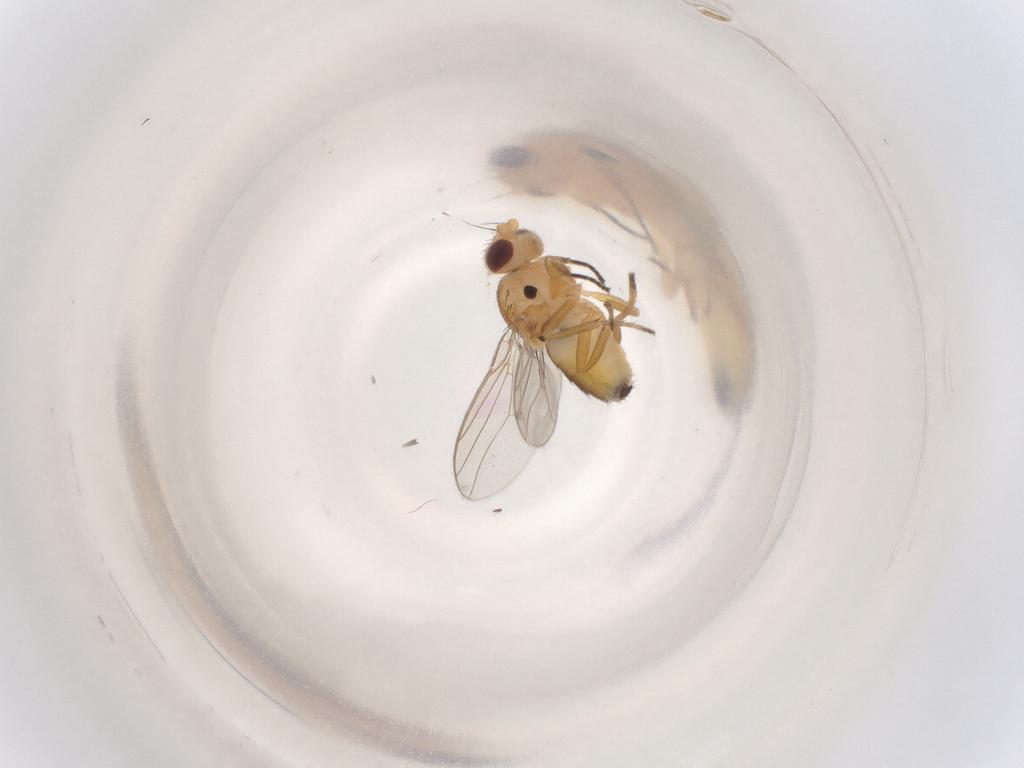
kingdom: Animalia
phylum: Arthropoda
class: Insecta
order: Diptera
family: Chloropidae
